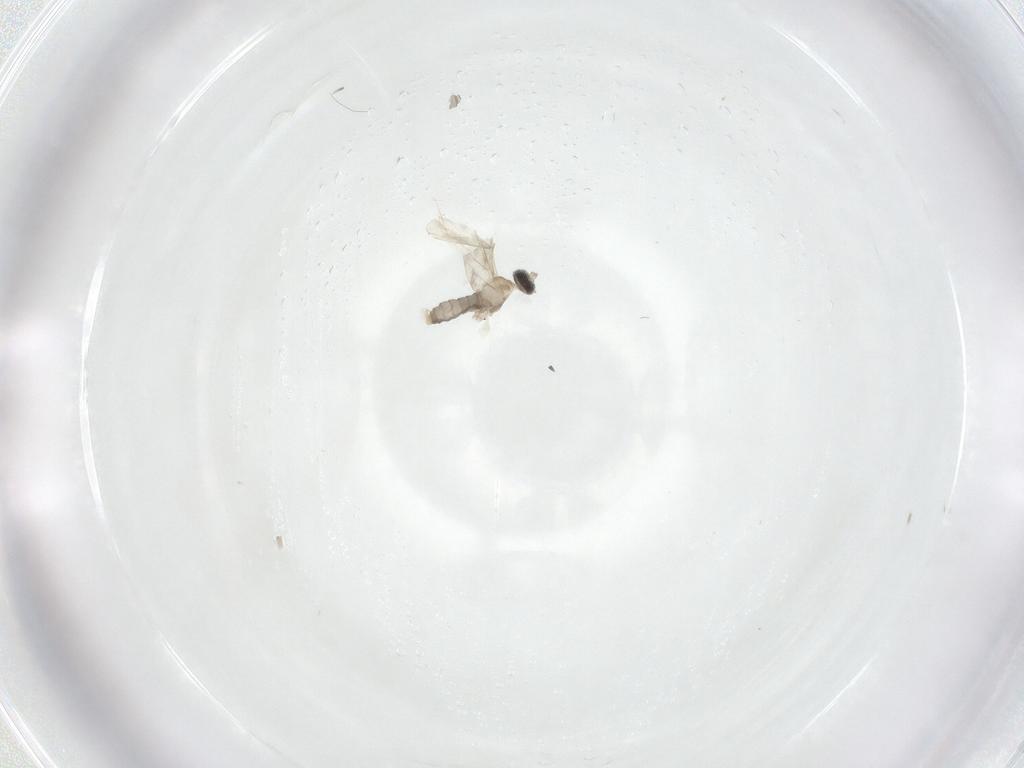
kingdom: Animalia
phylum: Arthropoda
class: Insecta
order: Diptera
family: Cecidomyiidae
